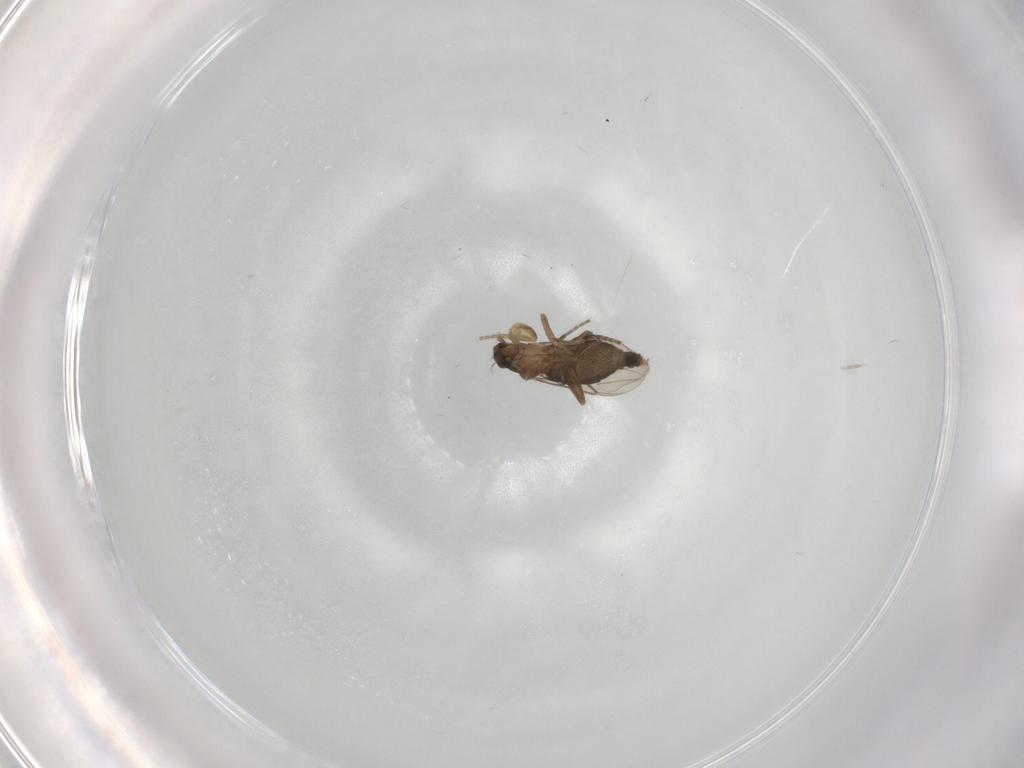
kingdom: Animalia
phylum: Arthropoda
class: Insecta
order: Diptera
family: Phoridae
